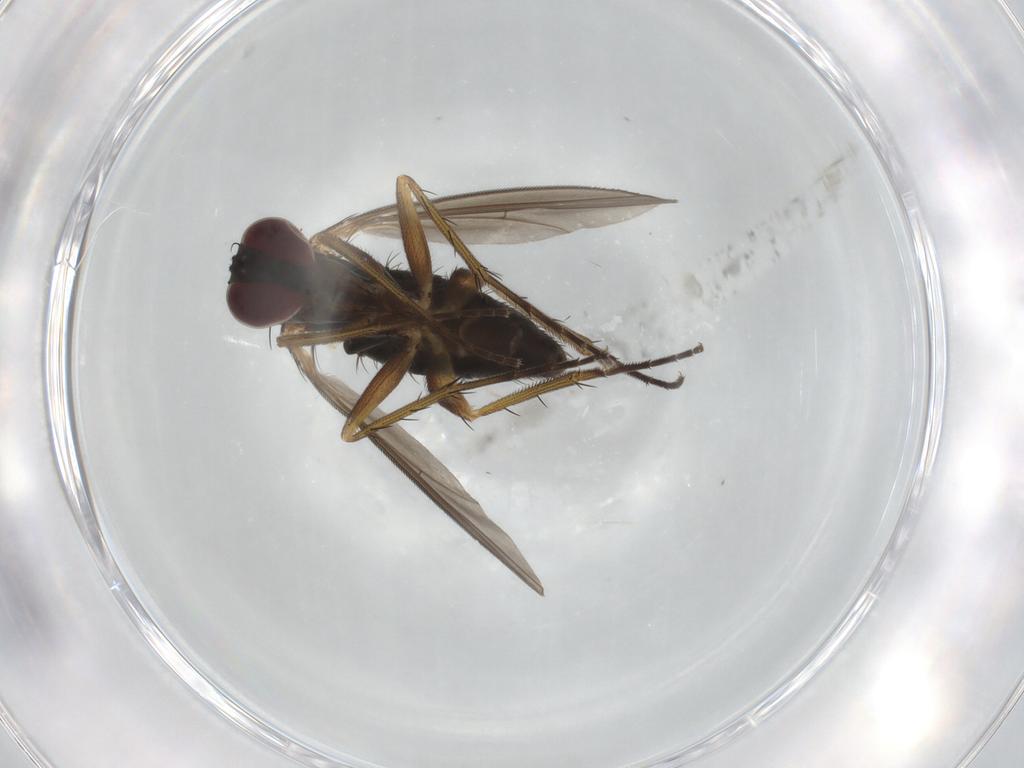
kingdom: Animalia
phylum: Arthropoda
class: Insecta
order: Diptera
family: Dolichopodidae
